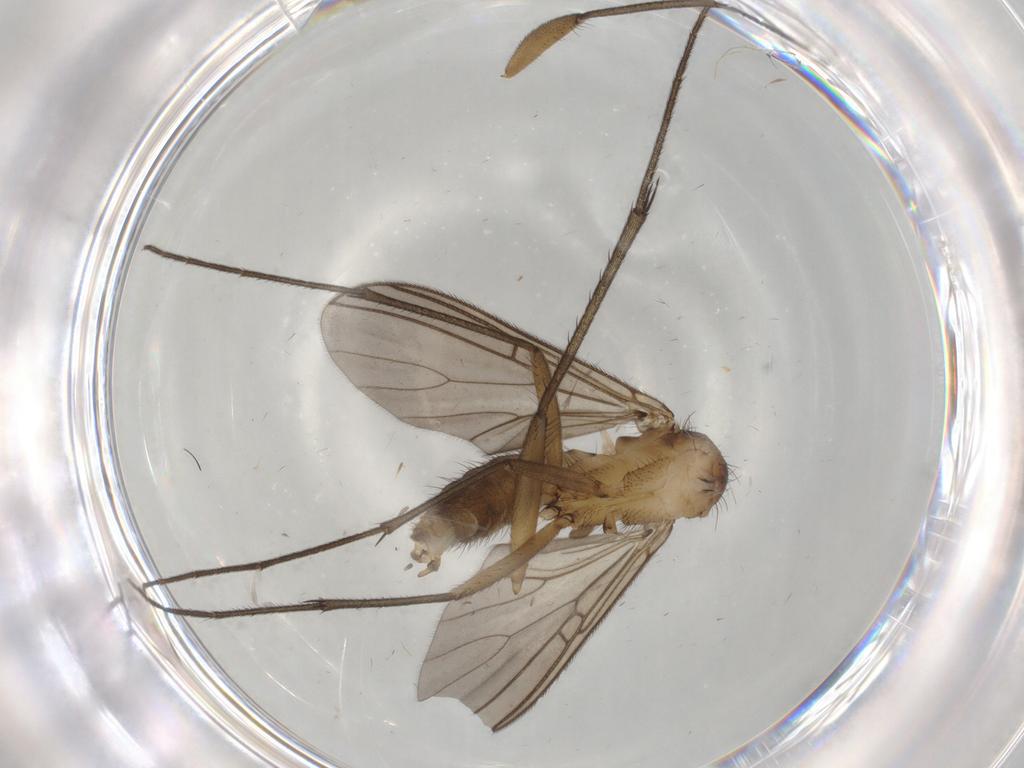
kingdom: Animalia
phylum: Arthropoda
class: Insecta
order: Diptera
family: Mycetophilidae
